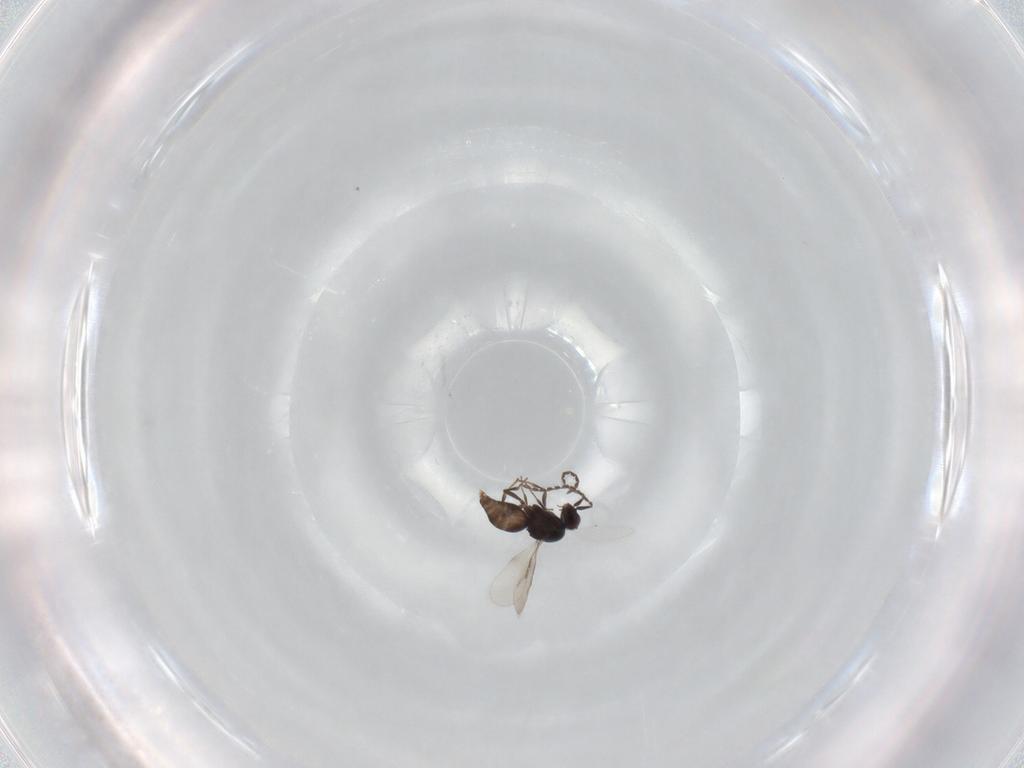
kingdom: Animalia
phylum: Arthropoda
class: Insecta
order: Hymenoptera
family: Ceraphronidae
